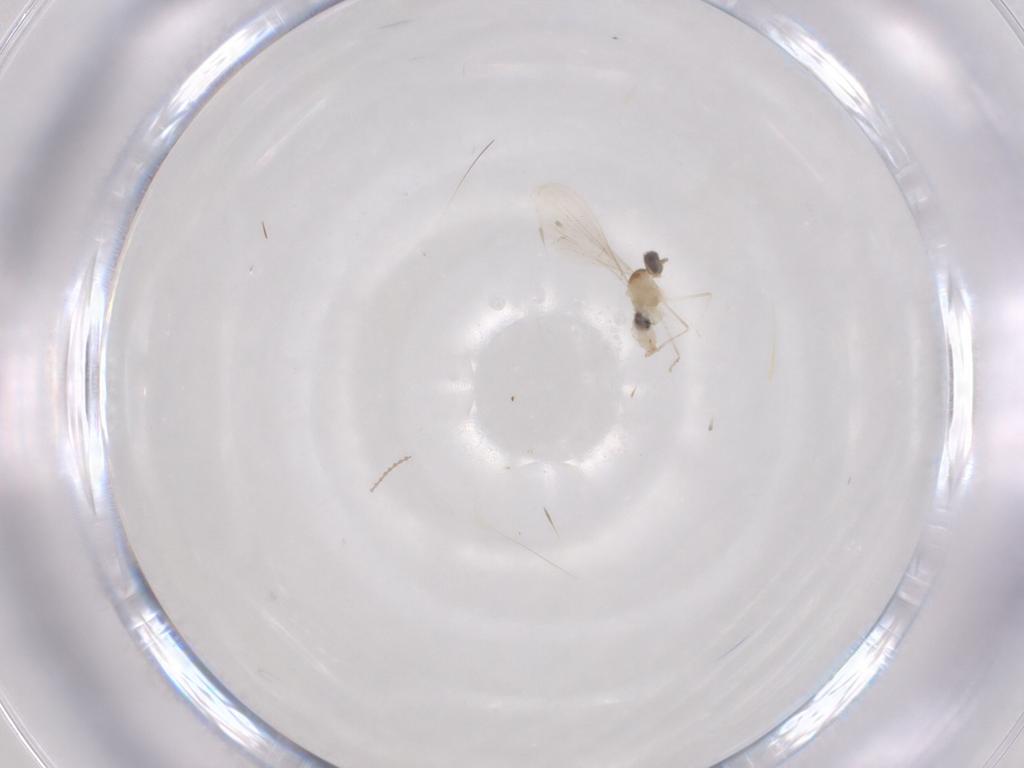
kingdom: Animalia
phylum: Arthropoda
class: Insecta
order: Diptera
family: Cecidomyiidae
